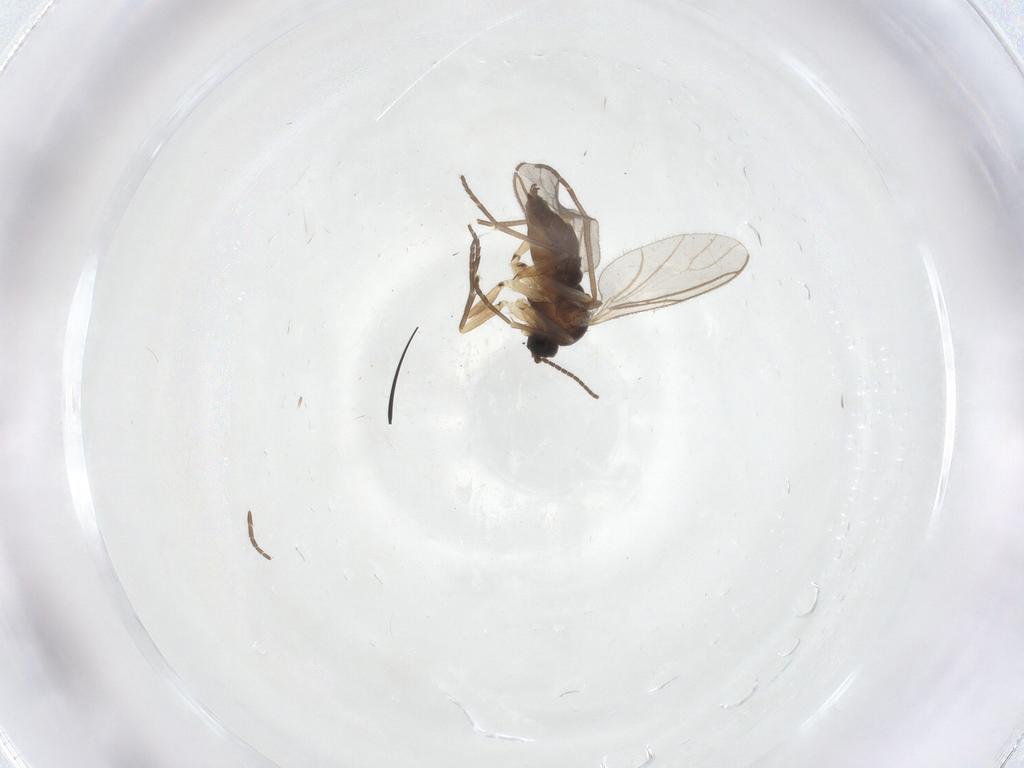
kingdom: Animalia
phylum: Arthropoda
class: Insecta
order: Diptera
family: Sciaridae
